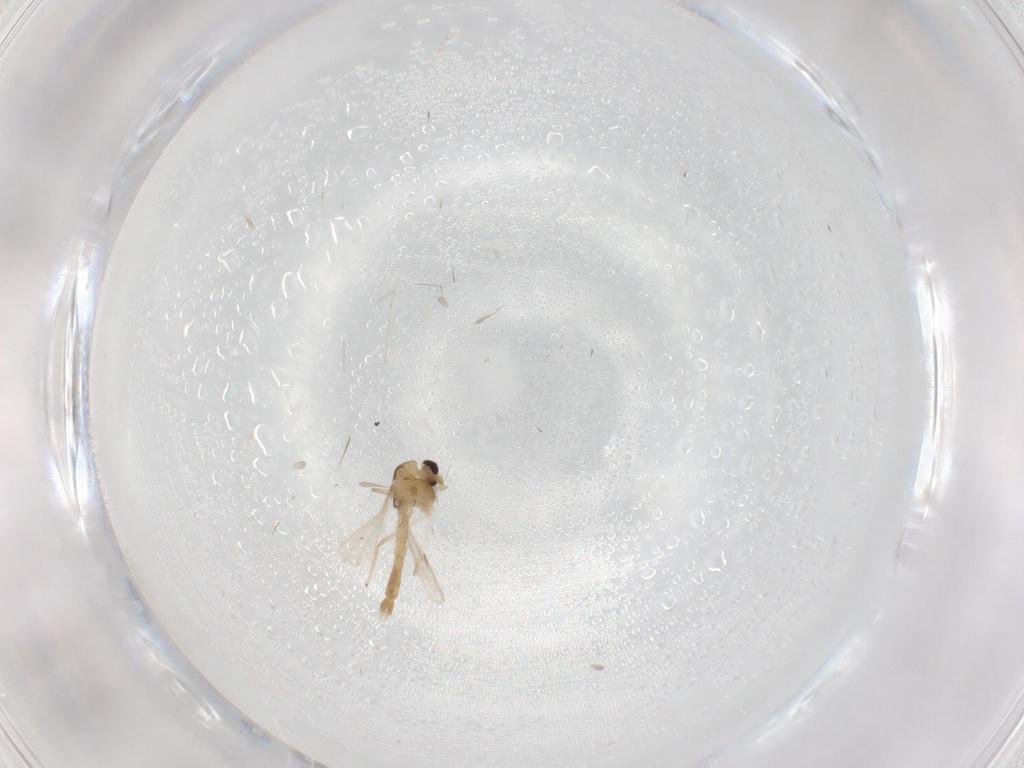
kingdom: Animalia
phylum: Arthropoda
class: Insecta
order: Diptera
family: Chironomidae
